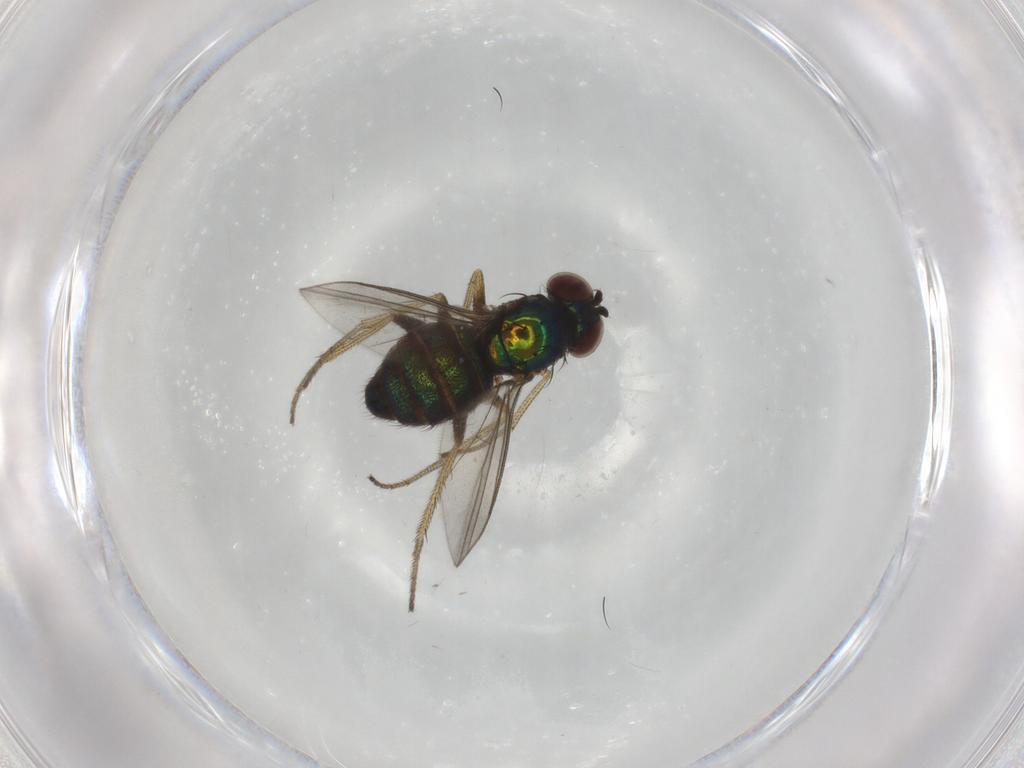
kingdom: Animalia
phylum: Arthropoda
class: Insecta
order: Diptera
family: Dolichopodidae
